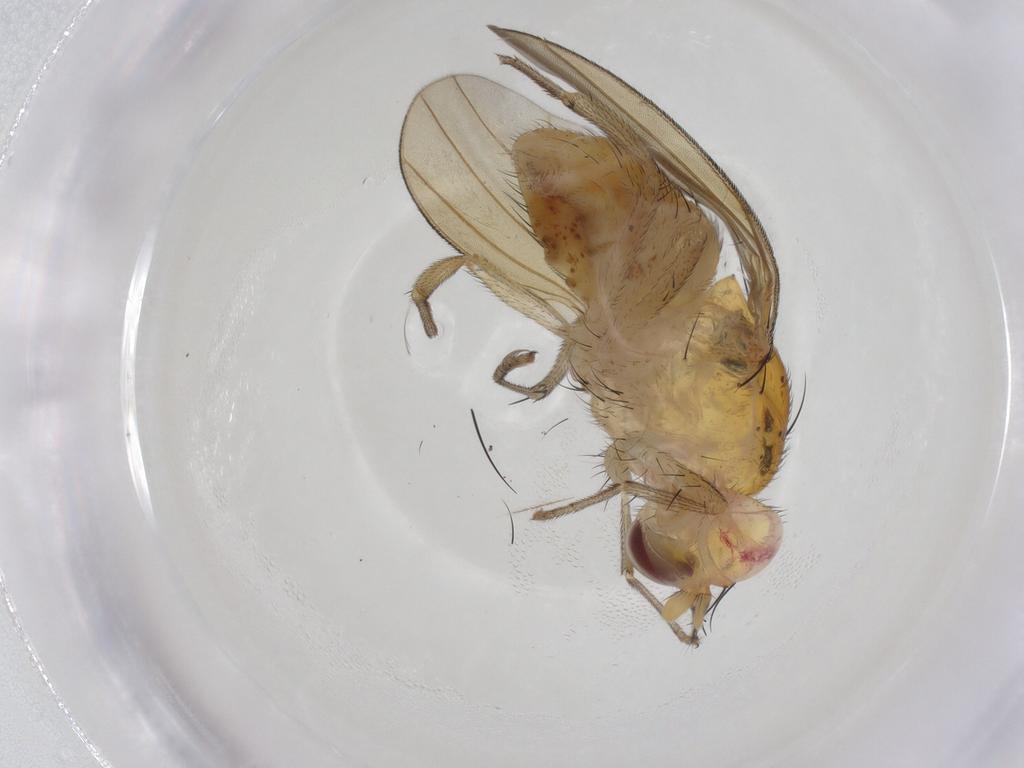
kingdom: Animalia
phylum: Arthropoda
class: Insecta
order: Diptera
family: Lauxaniidae
